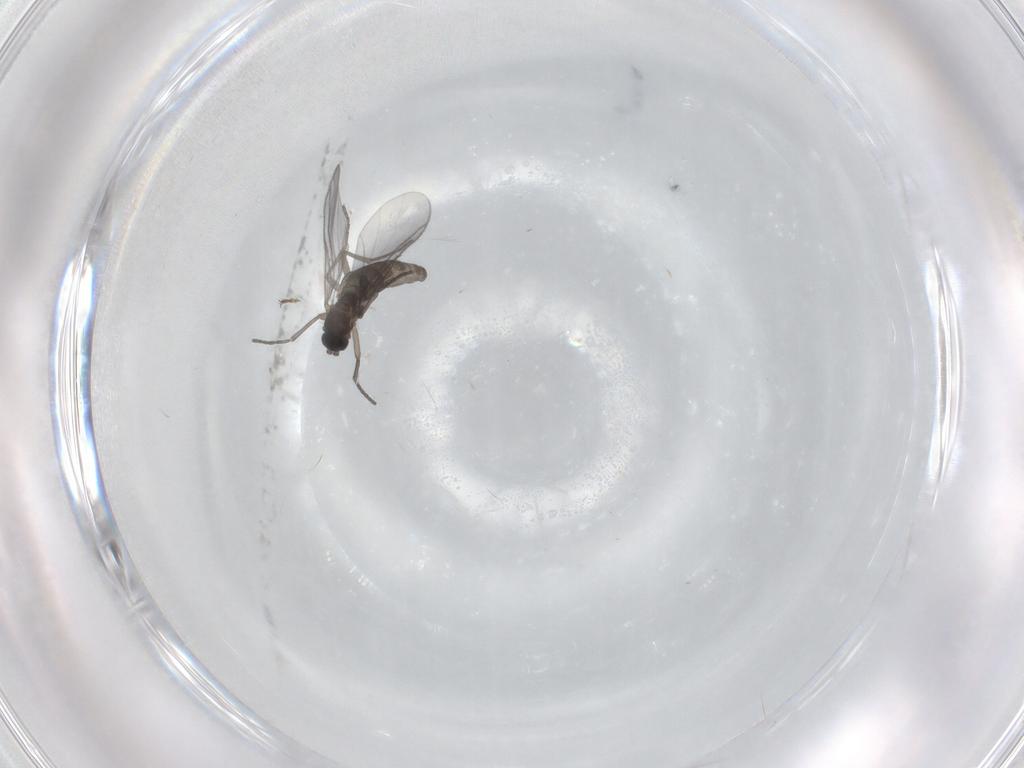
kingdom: Animalia
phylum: Arthropoda
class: Insecta
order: Diptera
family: Ceratopogonidae
